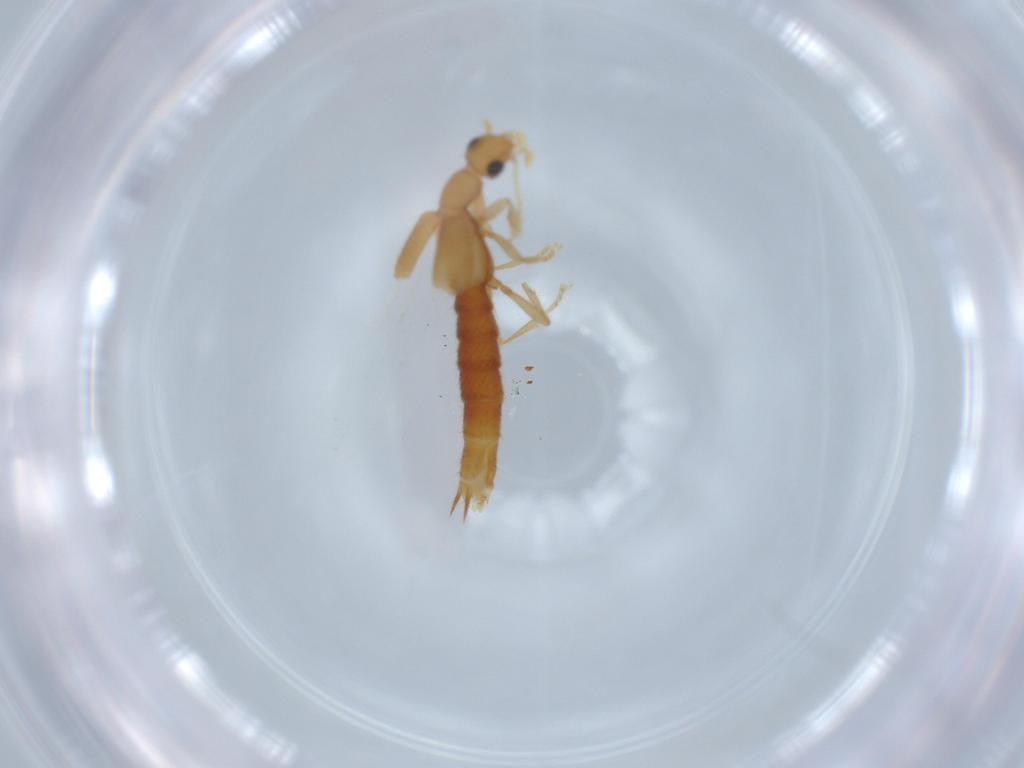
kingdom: Animalia
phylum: Arthropoda
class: Insecta
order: Coleoptera
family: Staphylinidae
